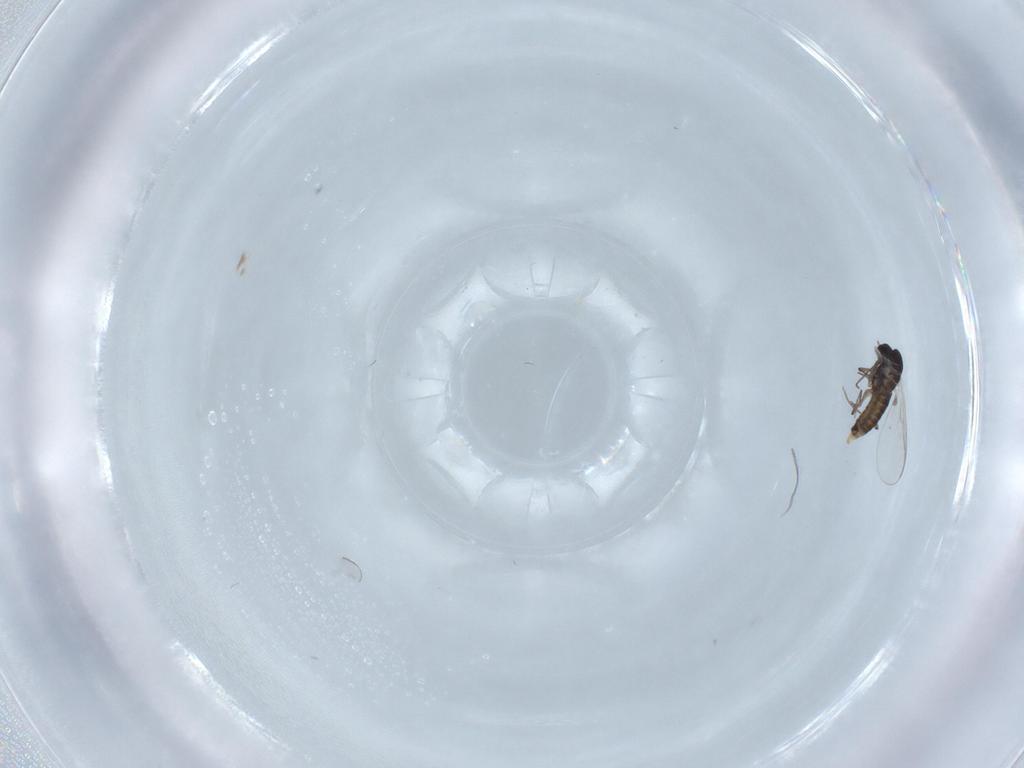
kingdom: Animalia
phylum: Arthropoda
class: Insecta
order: Diptera
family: Chironomidae
